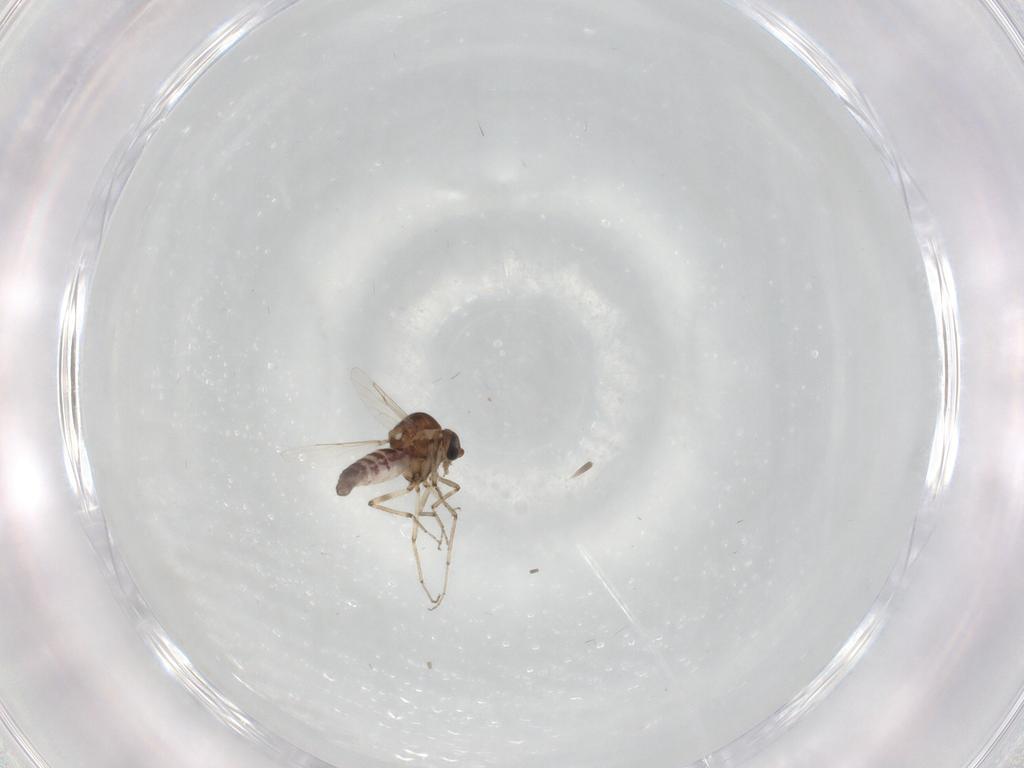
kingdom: Animalia
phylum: Arthropoda
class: Insecta
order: Diptera
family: Ceratopogonidae
